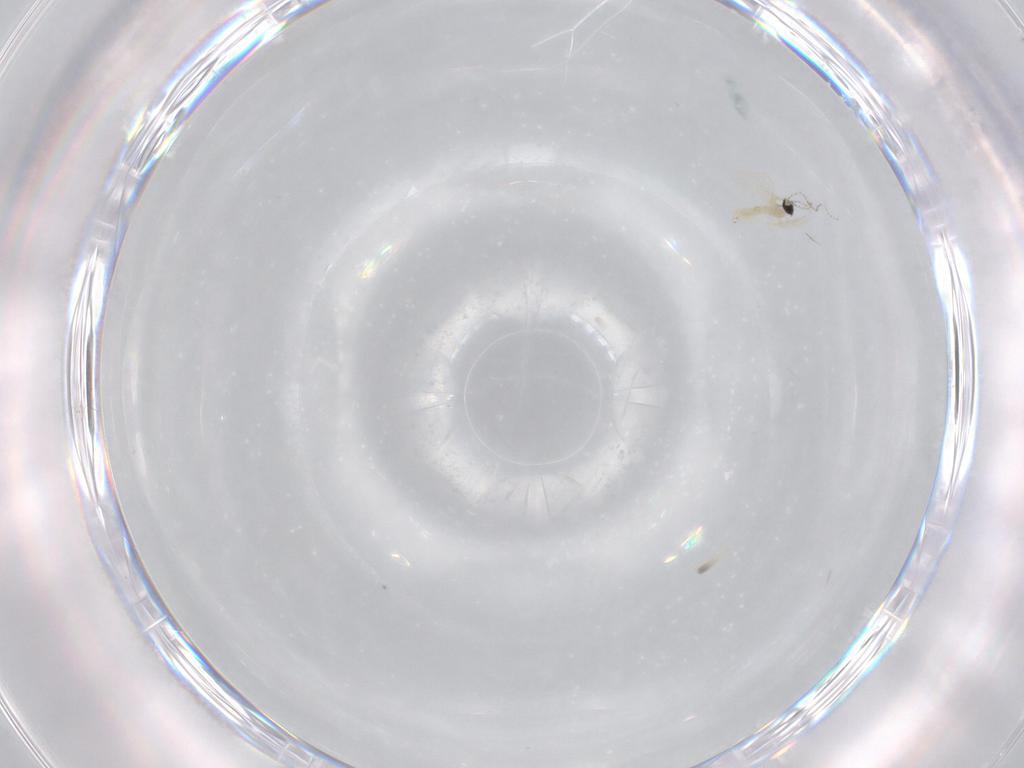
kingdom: Animalia
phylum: Arthropoda
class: Insecta
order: Diptera
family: Cecidomyiidae
